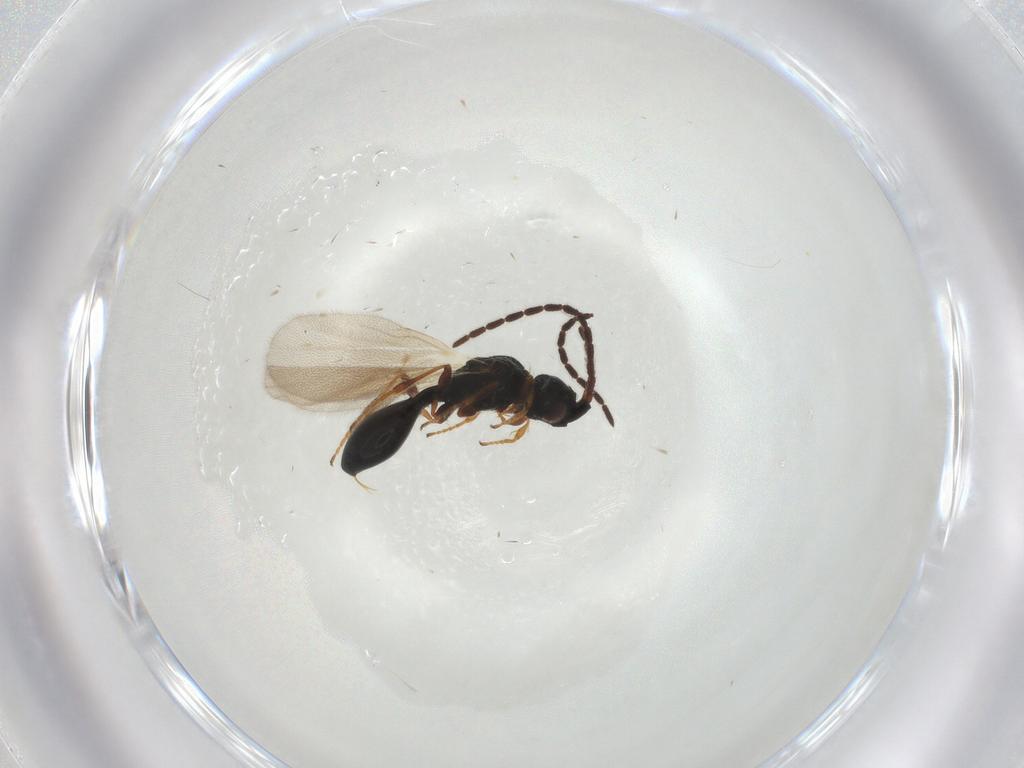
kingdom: Animalia
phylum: Arthropoda
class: Insecta
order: Hymenoptera
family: Diapriidae
